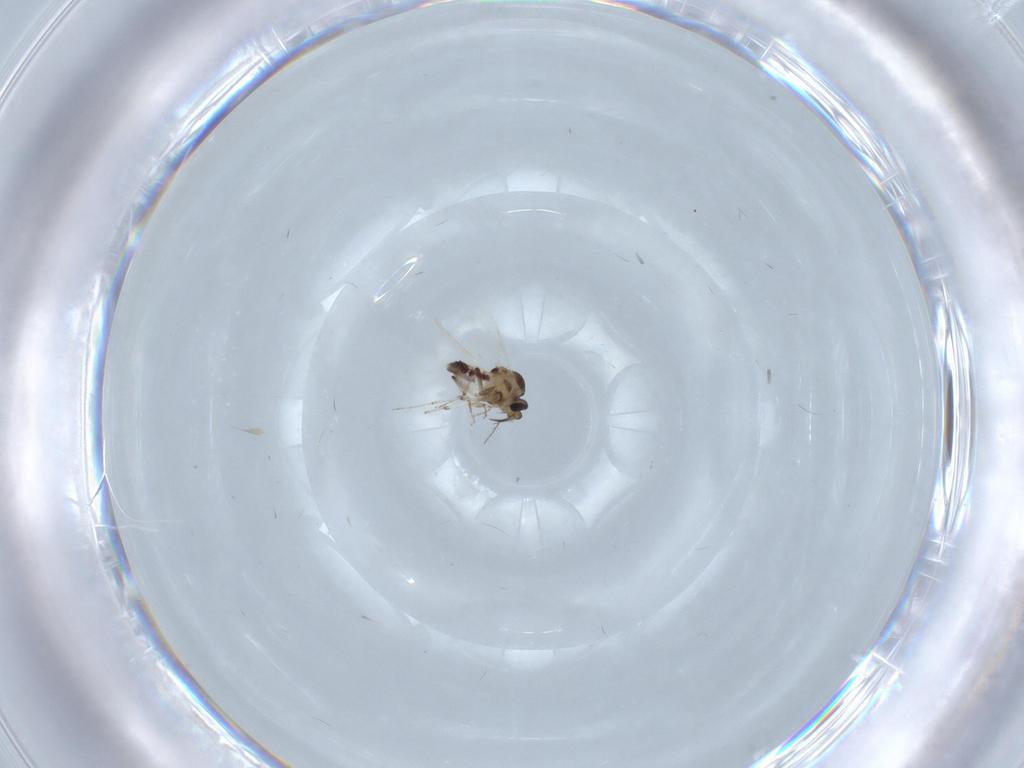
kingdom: Animalia
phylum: Arthropoda
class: Insecta
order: Diptera
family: Ceratopogonidae
